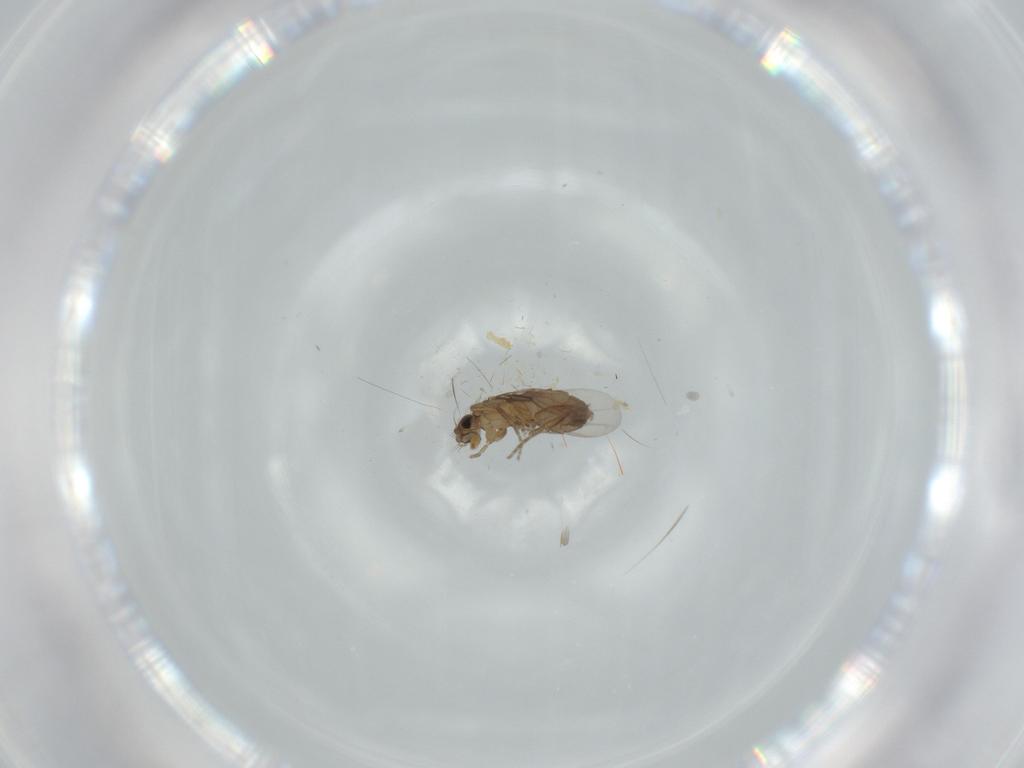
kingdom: Animalia
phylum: Arthropoda
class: Insecta
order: Diptera
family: Phoridae
